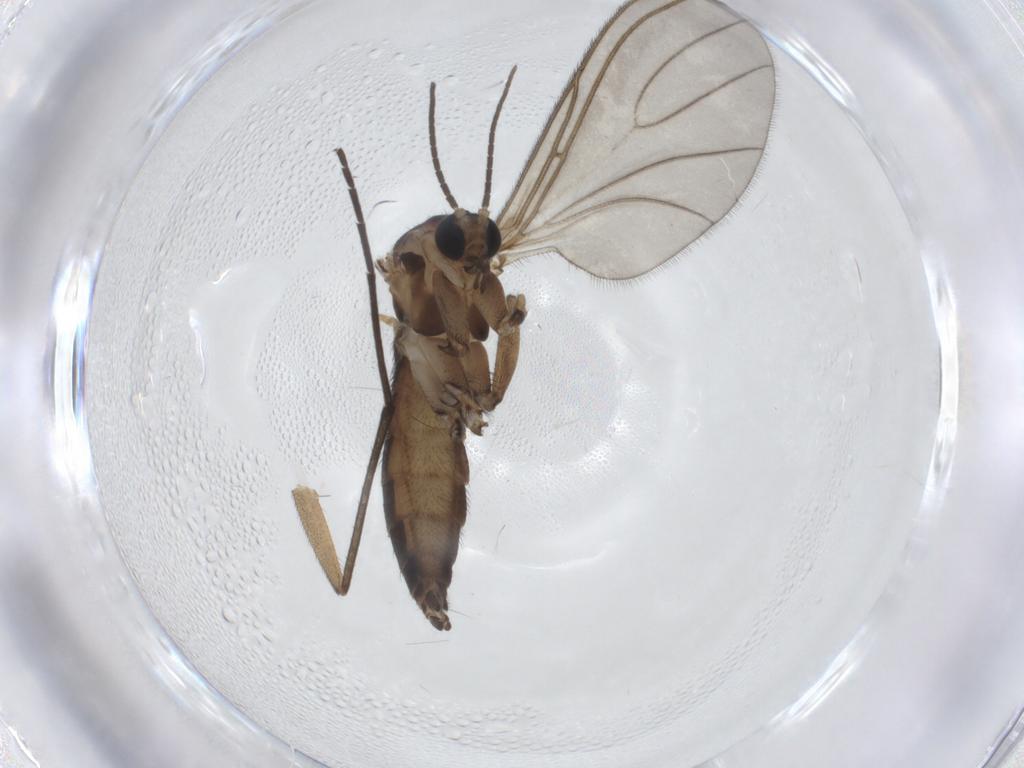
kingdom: Animalia
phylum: Arthropoda
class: Insecta
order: Diptera
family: Sciaridae
